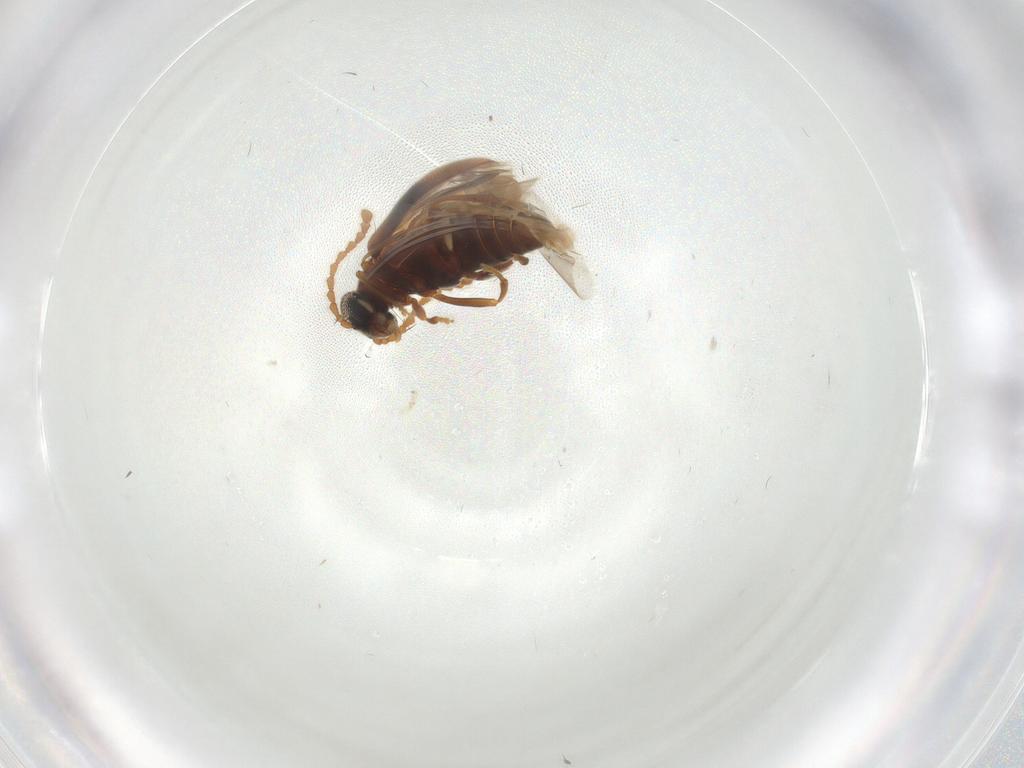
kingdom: Animalia
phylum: Arthropoda
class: Insecta
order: Coleoptera
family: Aderidae
